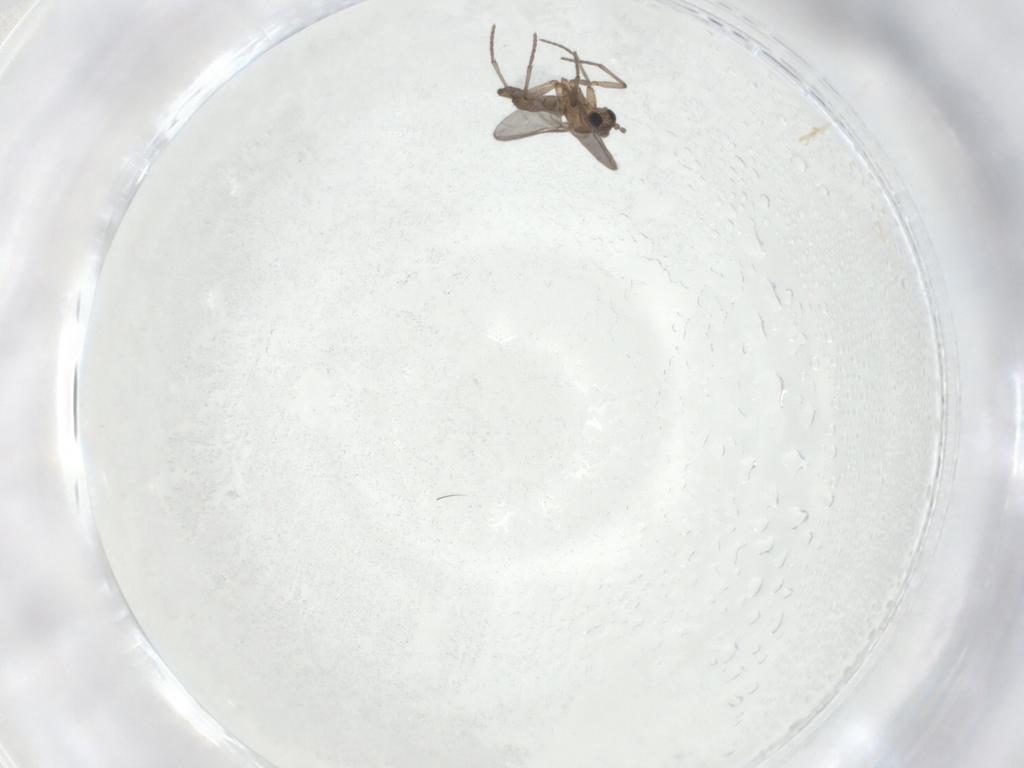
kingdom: Animalia
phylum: Arthropoda
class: Insecta
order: Diptera
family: Sciaridae
